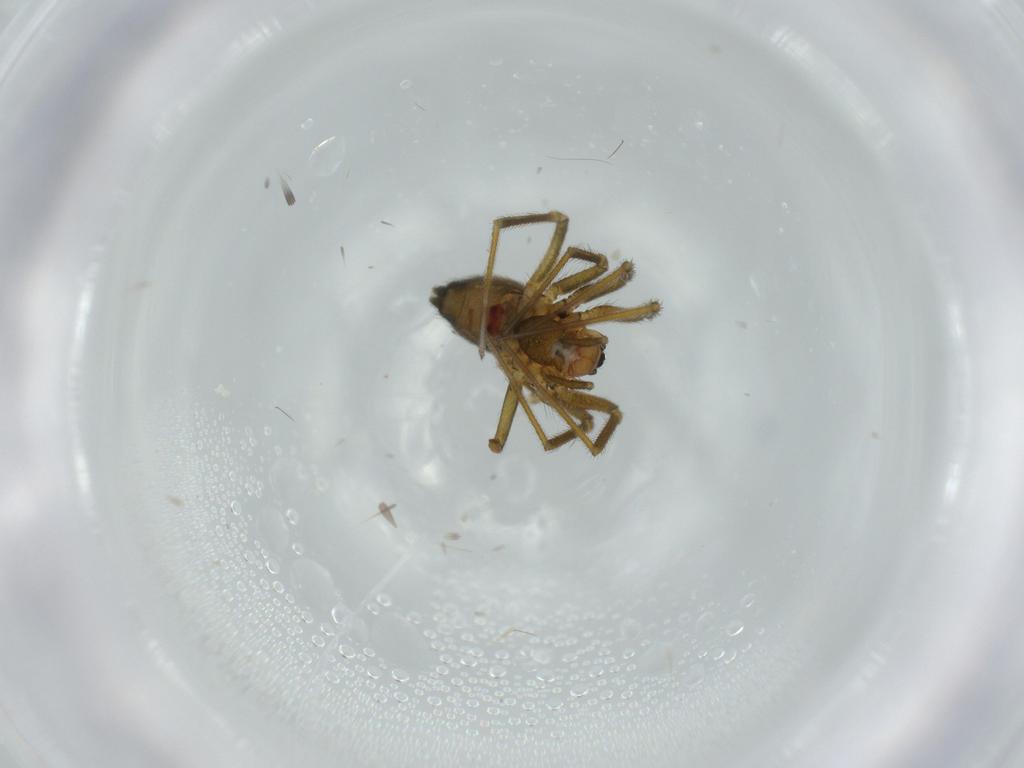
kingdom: Animalia
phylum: Arthropoda
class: Arachnida
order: Araneae
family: Linyphiidae
